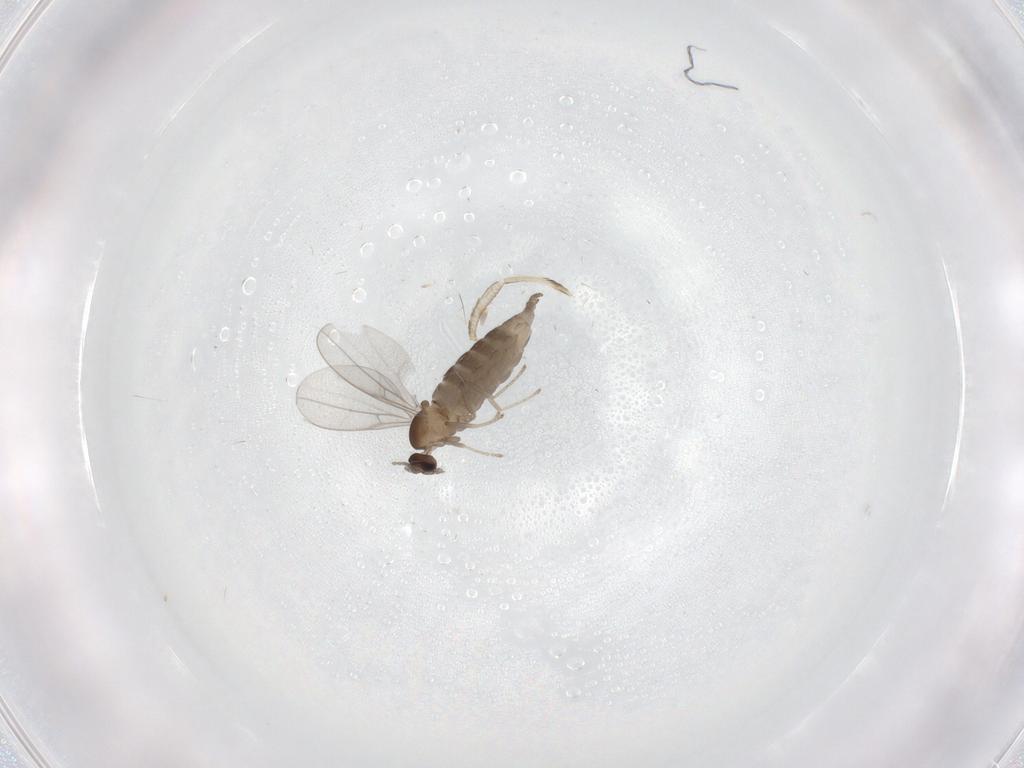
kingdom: Animalia
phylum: Arthropoda
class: Insecta
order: Diptera
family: Cecidomyiidae
